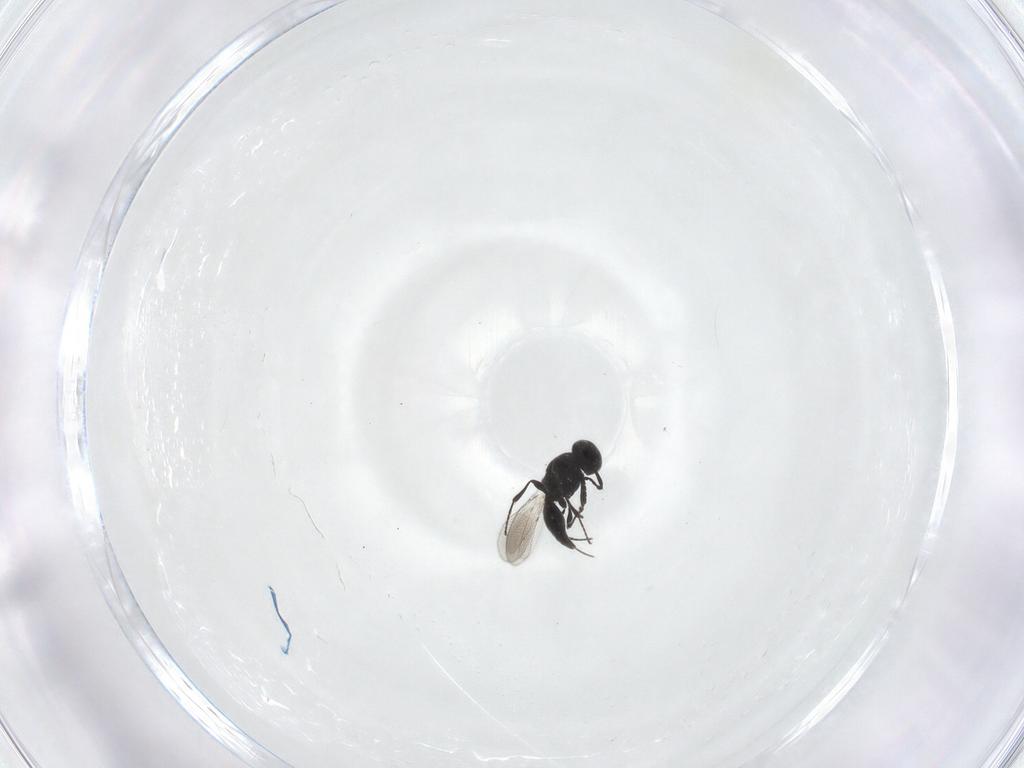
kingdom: Animalia
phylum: Arthropoda
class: Insecta
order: Hymenoptera
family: Platygastridae
